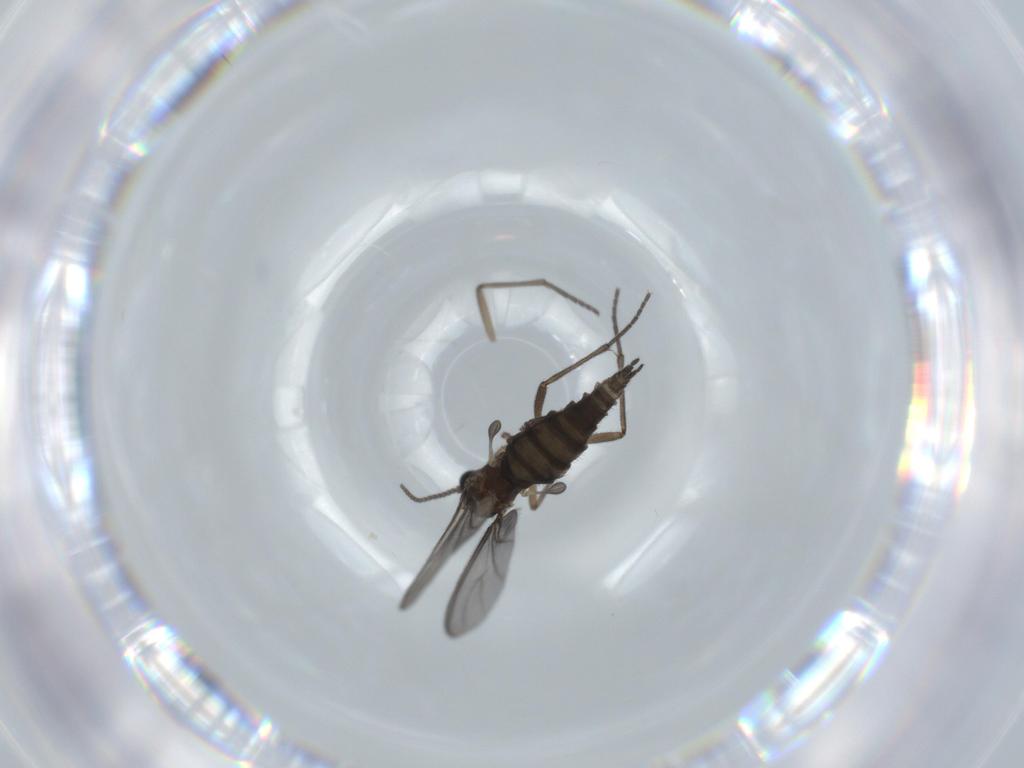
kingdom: Animalia
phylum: Arthropoda
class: Insecta
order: Diptera
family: Sciaridae
